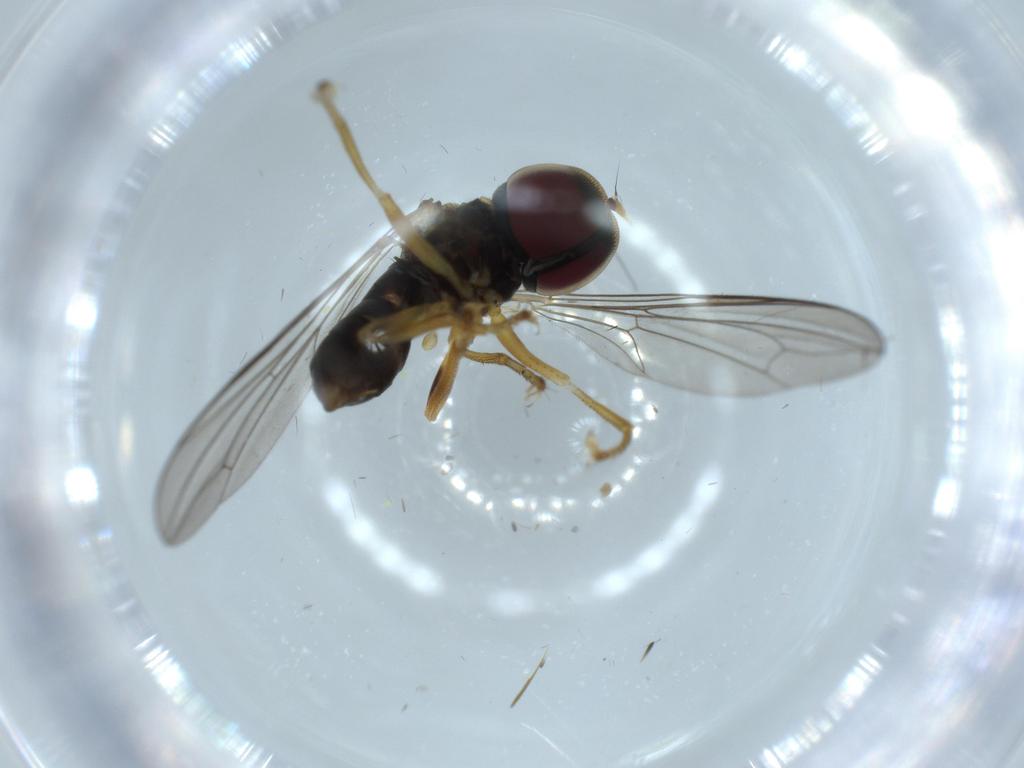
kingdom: Animalia
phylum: Arthropoda
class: Insecta
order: Diptera
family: Pipunculidae
